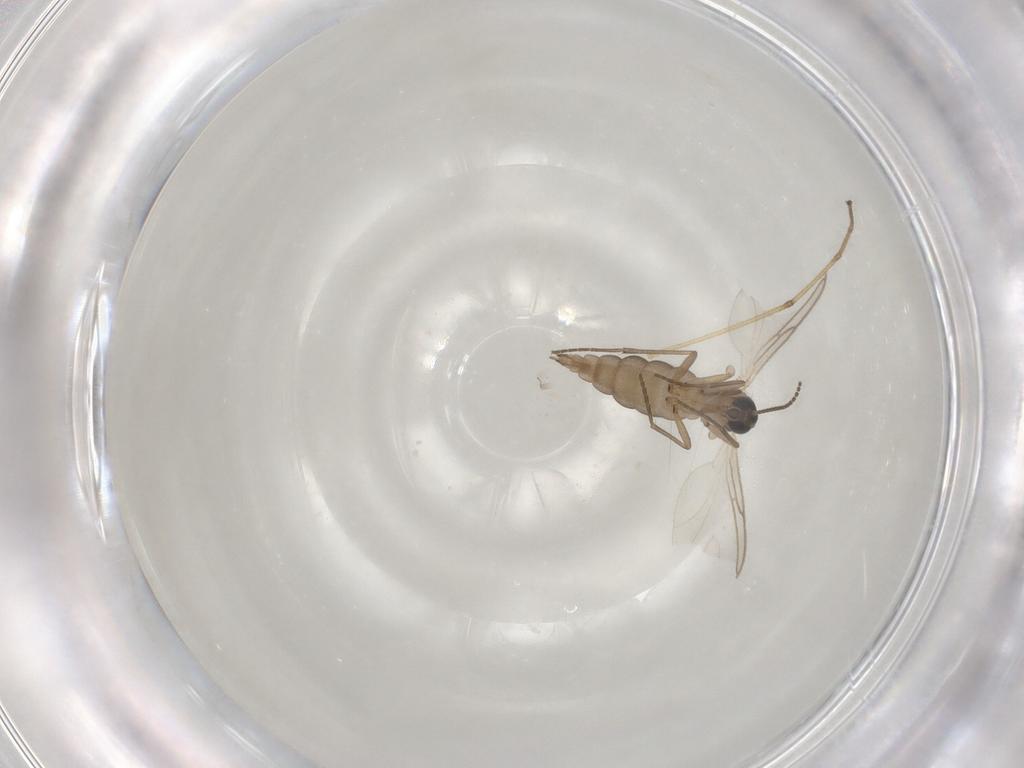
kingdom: Animalia
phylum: Arthropoda
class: Insecta
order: Diptera
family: Sciaridae
